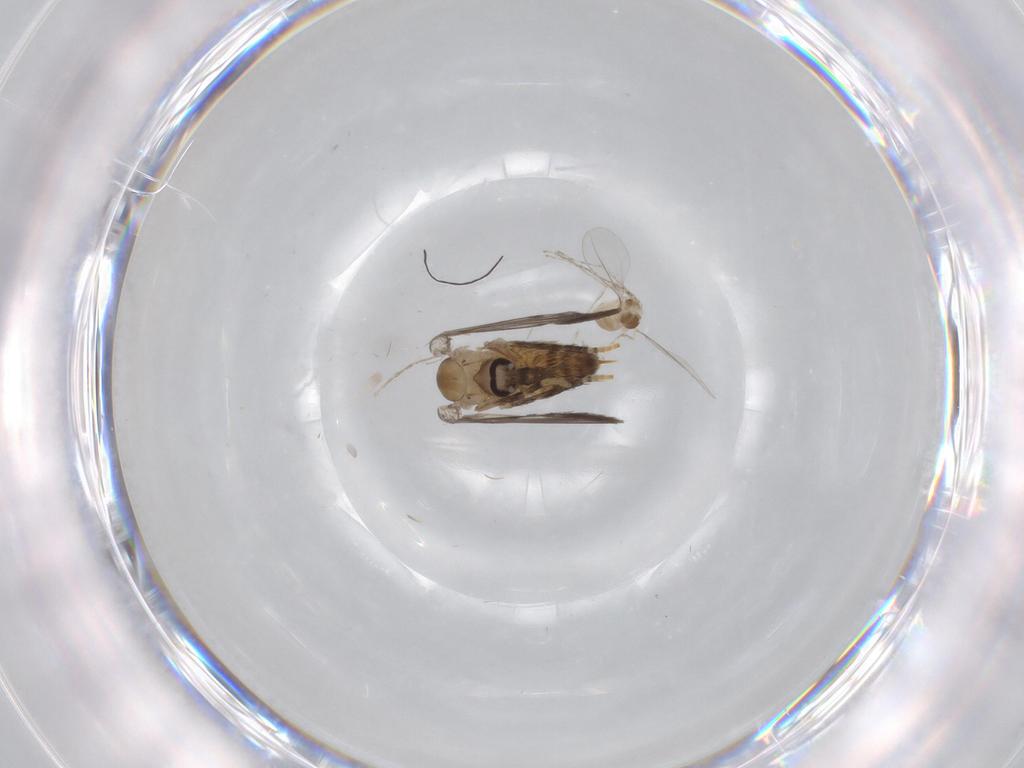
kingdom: Animalia
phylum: Arthropoda
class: Insecta
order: Diptera
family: Psychodidae
